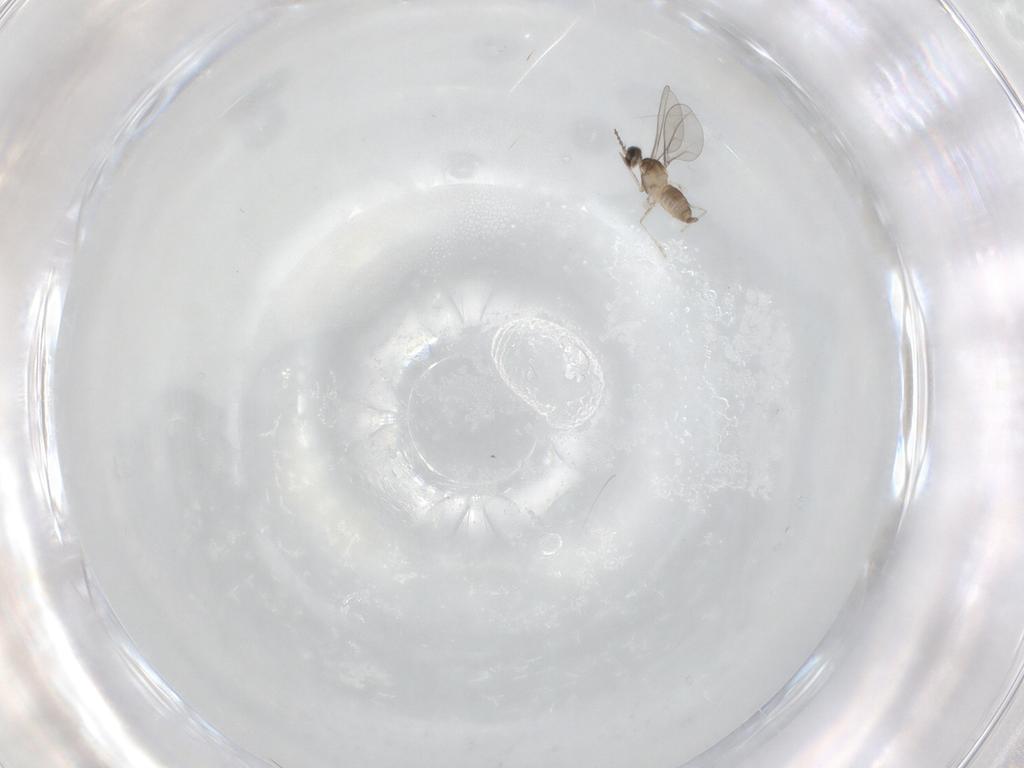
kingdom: Animalia
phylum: Arthropoda
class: Insecta
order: Diptera
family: Cecidomyiidae
